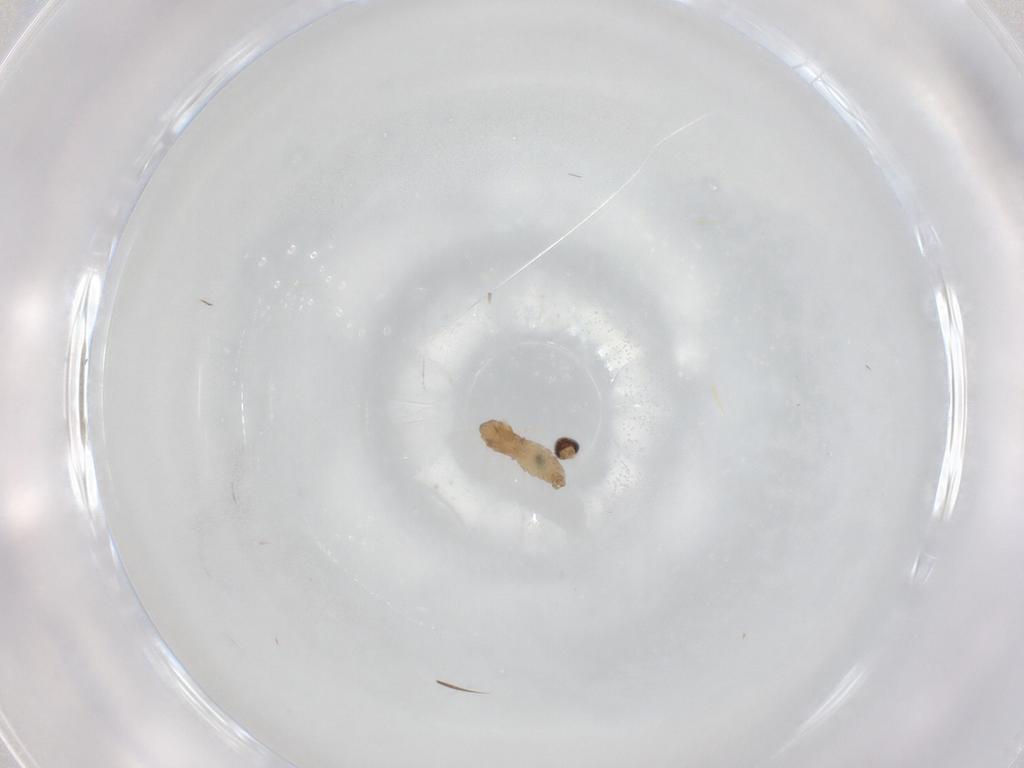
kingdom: Animalia
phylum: Arthropoda
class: Insecta
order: Diptera
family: Cecidomyiidae
